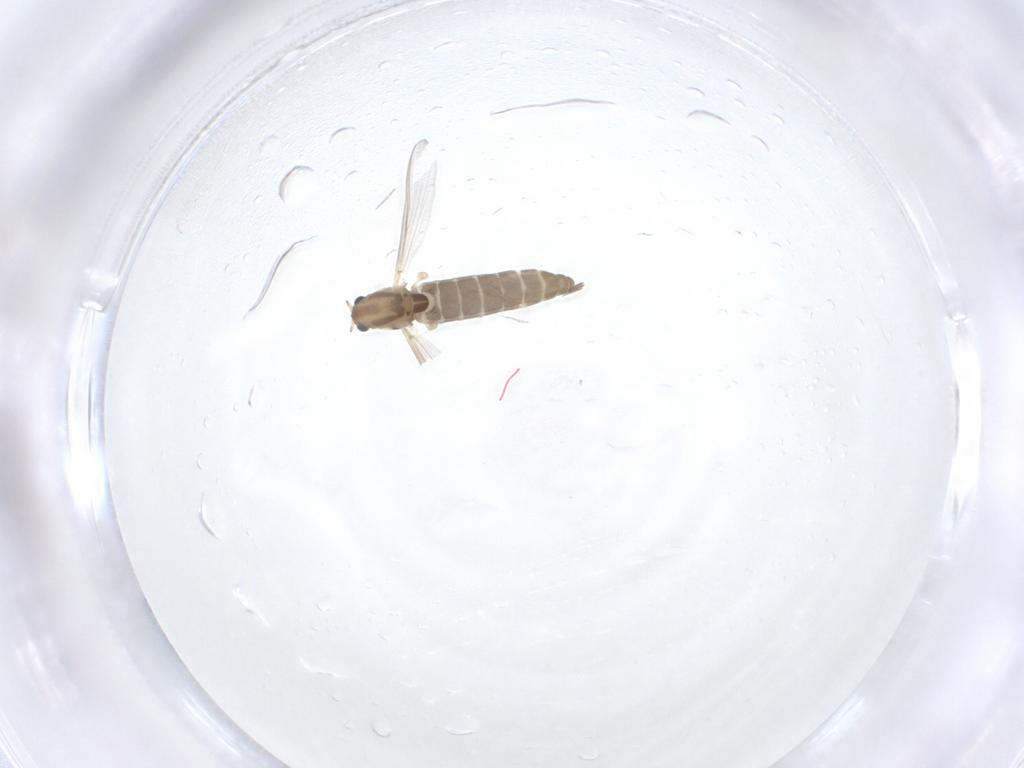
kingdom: Animalia
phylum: Arthropoda
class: Insecta
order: Diptera
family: Chironomidae
